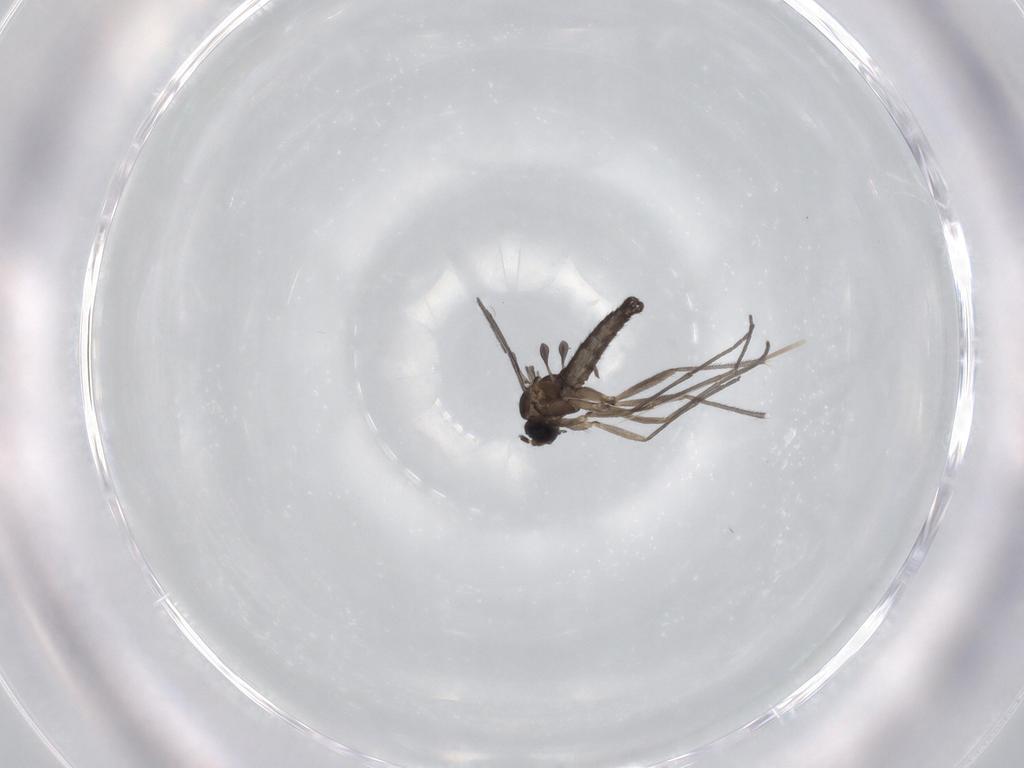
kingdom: Animalia
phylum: Arthropoda
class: Insecta
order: Diptera
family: Sciaridae
